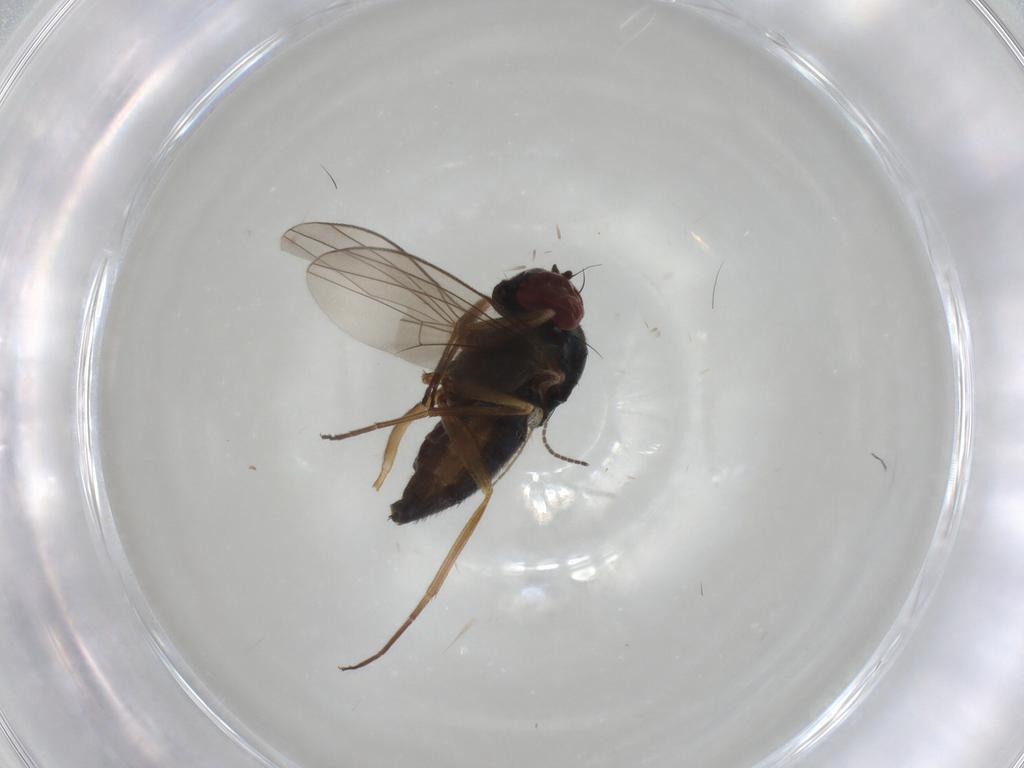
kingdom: Animalia
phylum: Arthropoda
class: Insecta
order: Diptera
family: Dolichopodidae
